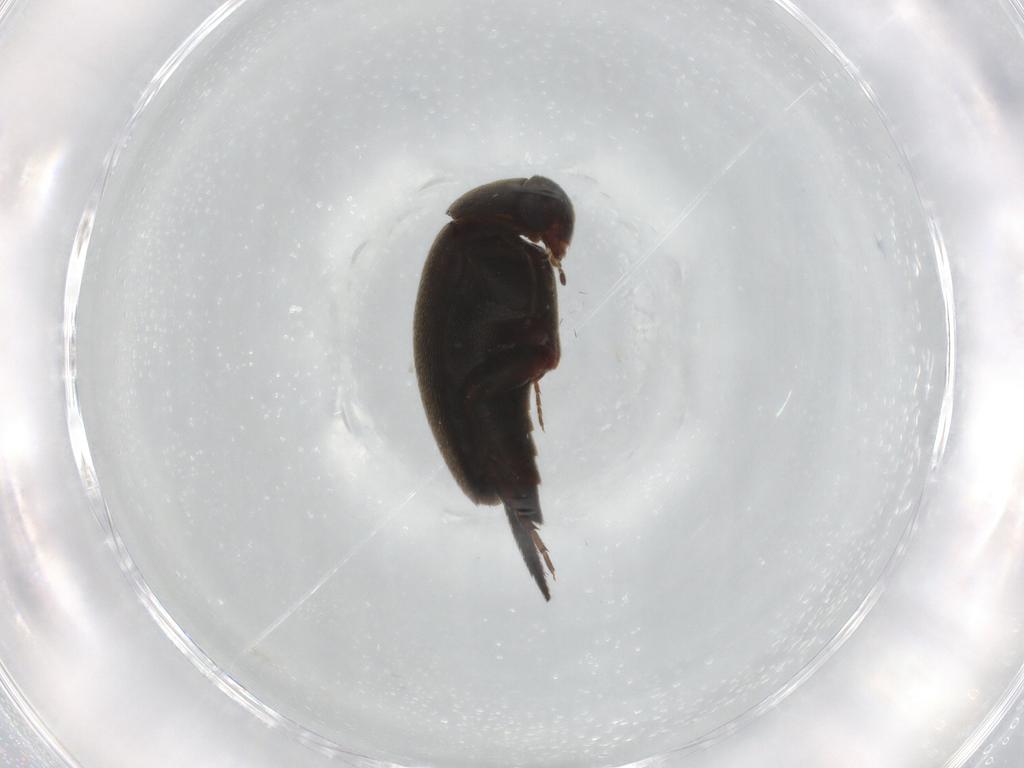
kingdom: Animalia
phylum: Arthropoda
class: Insecta
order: Coleoptera
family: Mordellidae
